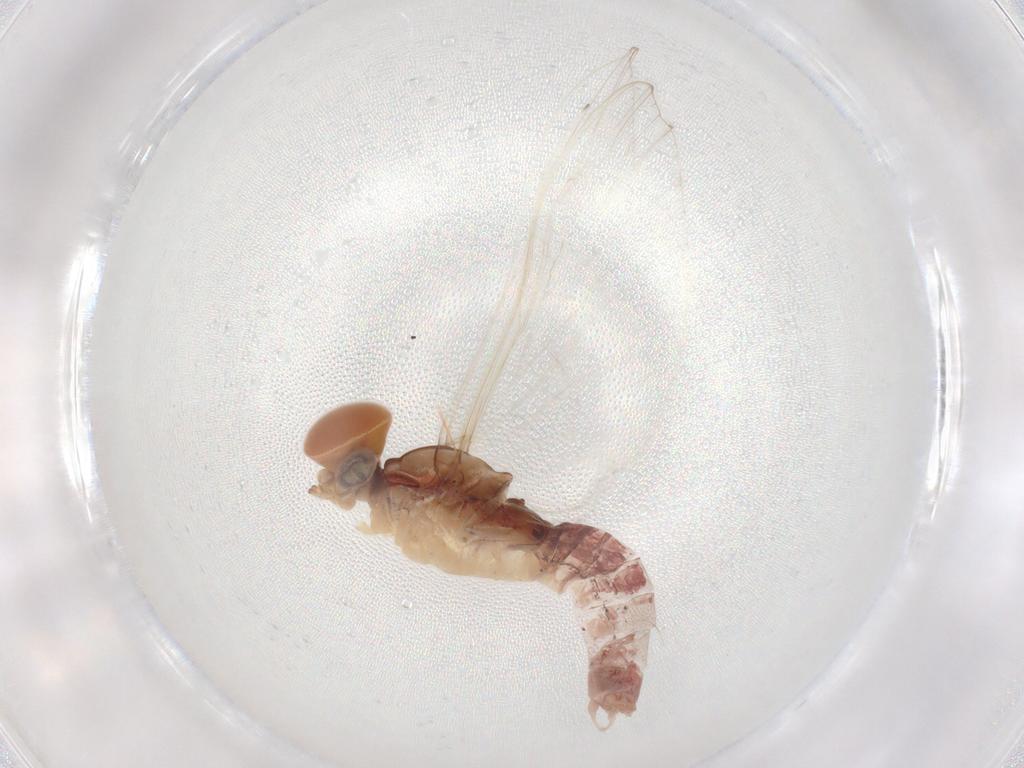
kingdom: Animalia
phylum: Arthropoda
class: Insecta
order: Ephemeroptera
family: Baetidae
